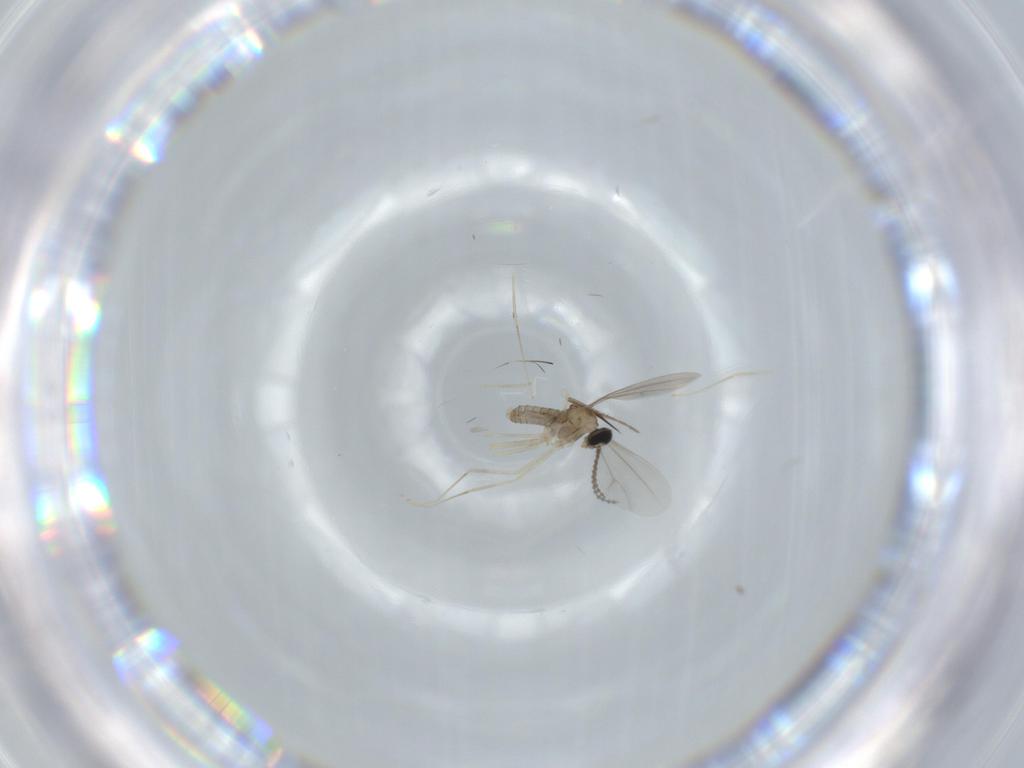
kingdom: Animalia
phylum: Arthropoda
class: Insecta
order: Diptera
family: Cecidomyiidae
